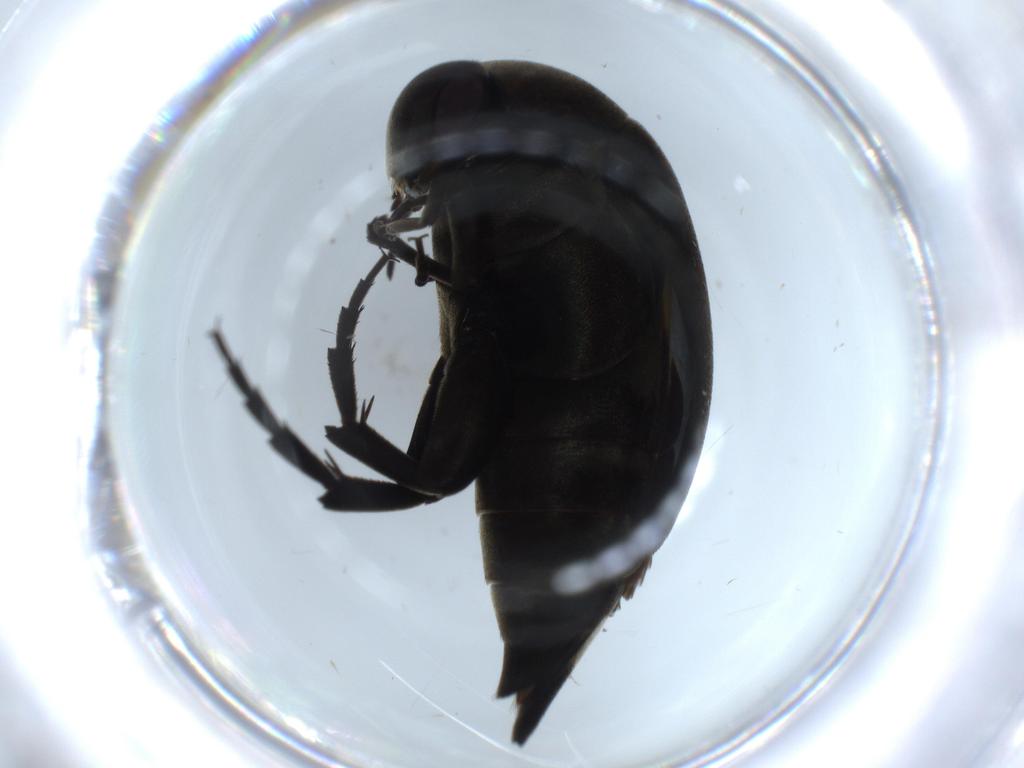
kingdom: Animalia
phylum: Arthropoda
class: Insecta
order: Coleoptera
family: Mordellidae
